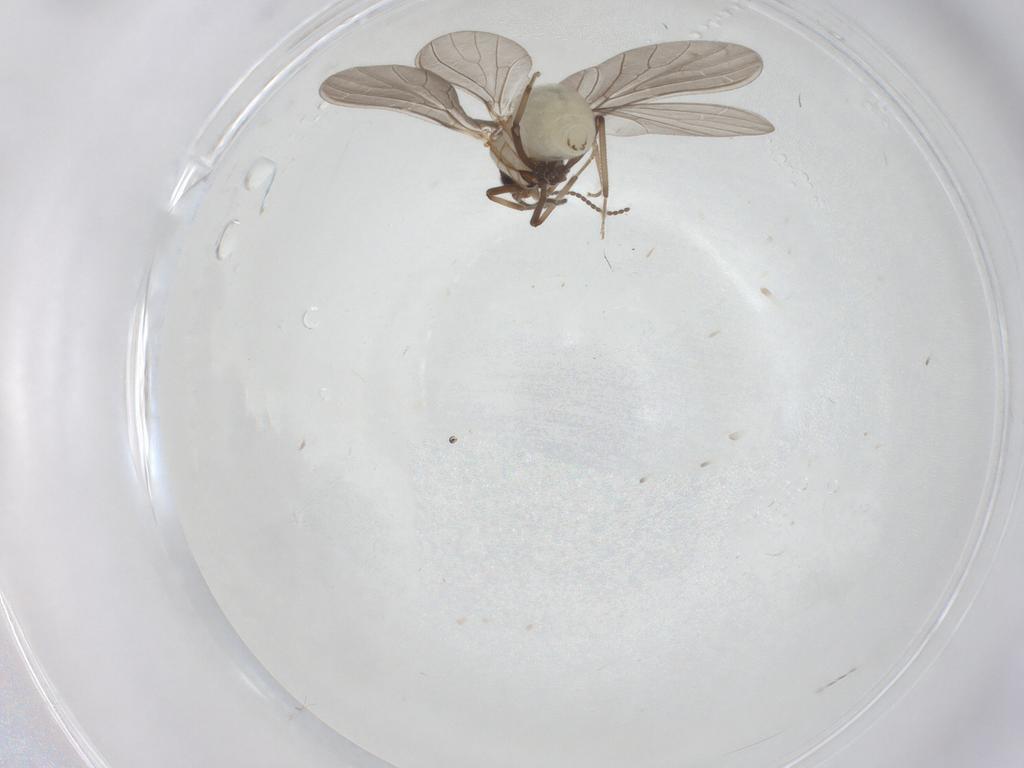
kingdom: Animalia
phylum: Arthropoda
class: Insecta
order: Neuroptera
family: Coniopterygidae
